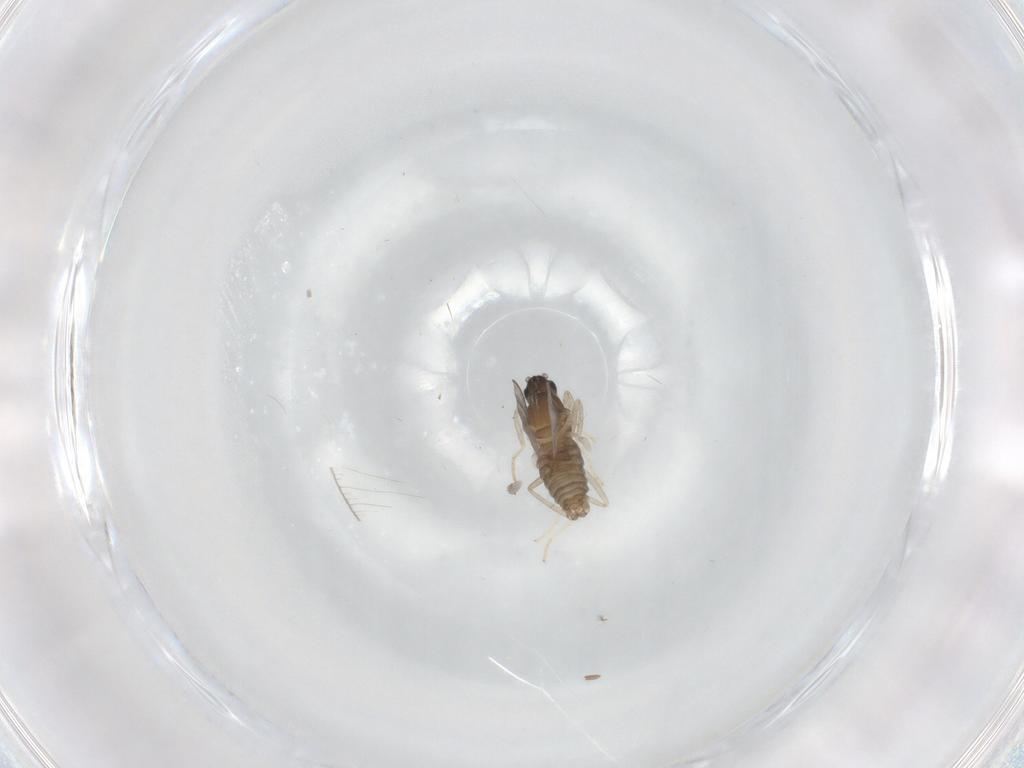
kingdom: Animalia
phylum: Arthropoda
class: Insecta
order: Diptera
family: Cecidomyiidae
